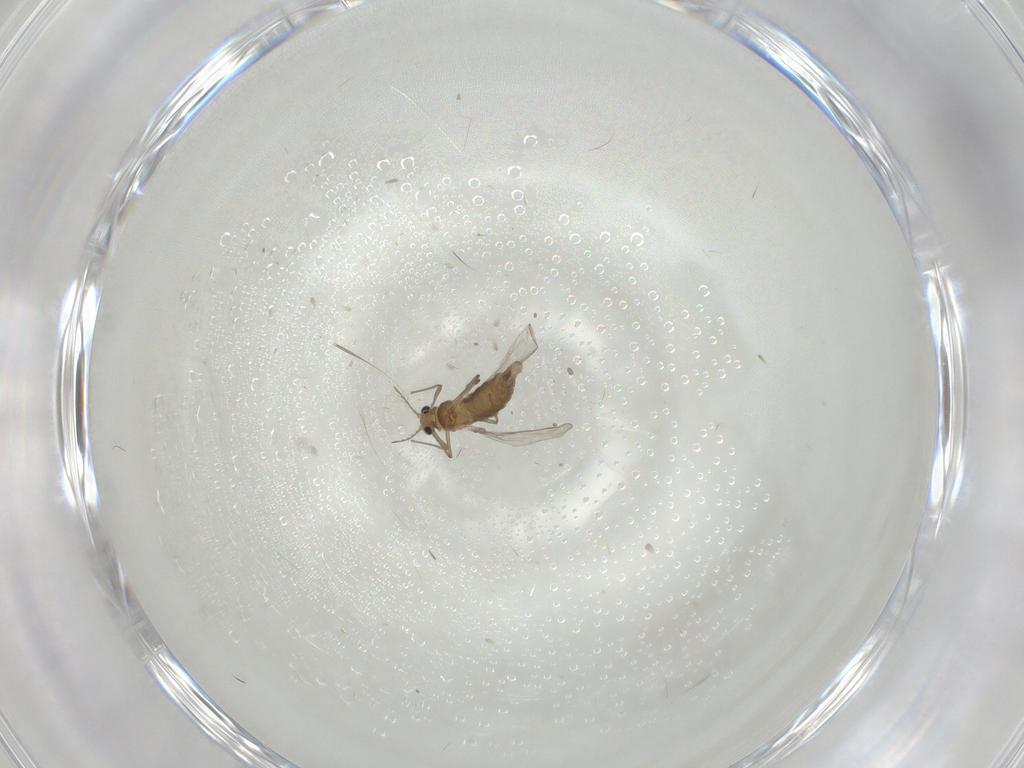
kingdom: Animalia
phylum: Arthropoda
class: Insecta
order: Diptera
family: Chironomidae
